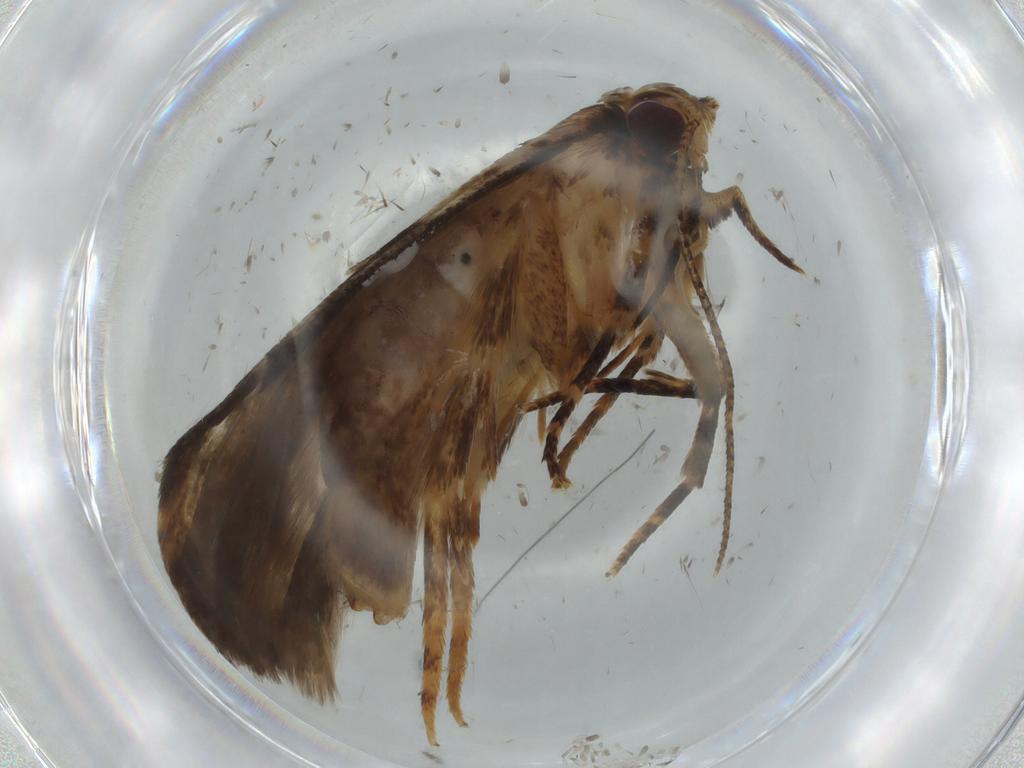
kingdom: Animalia
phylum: Arthropoda
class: Insecta
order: Lepidoptera
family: Gelechiidae
